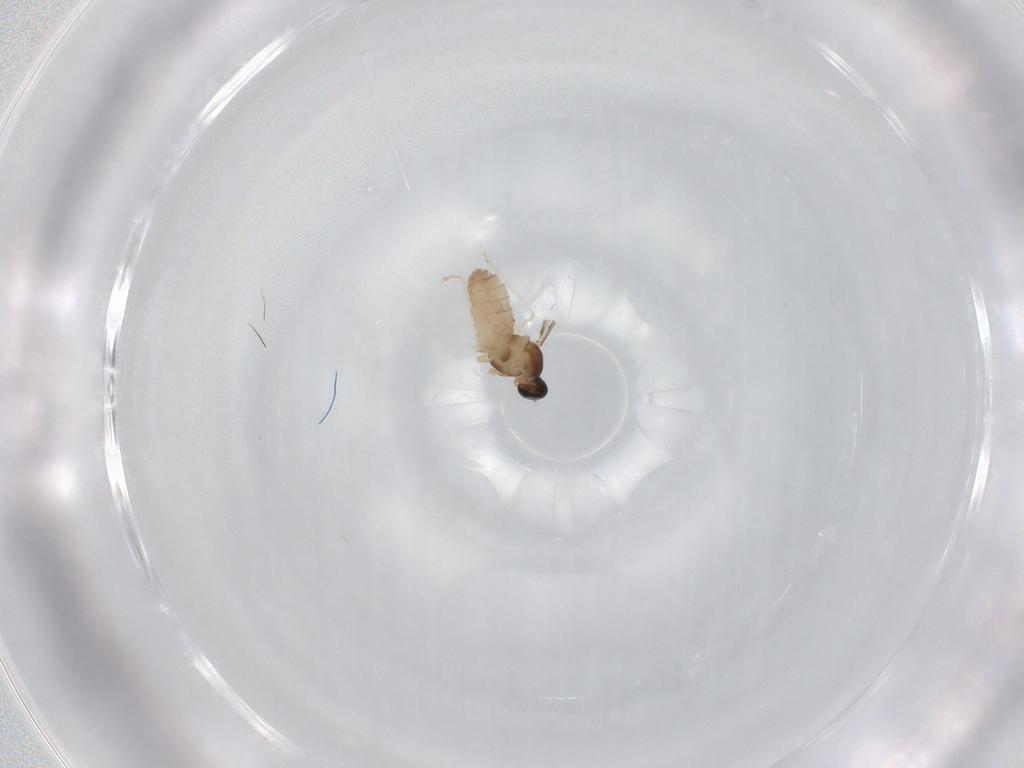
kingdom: Animalia
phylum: Arthropoda
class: Insecta
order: Diptera
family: Cecidomyiidae
